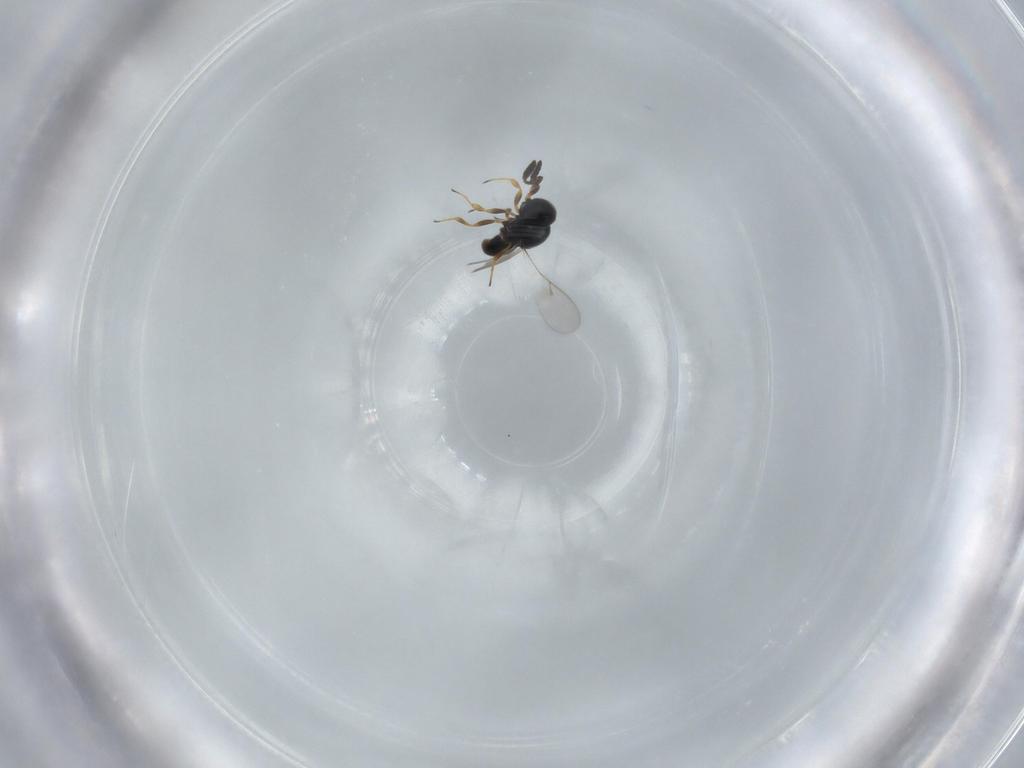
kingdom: Animalia
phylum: Arthropoda
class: Insecta
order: Hymenoptera
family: Scelionidae
